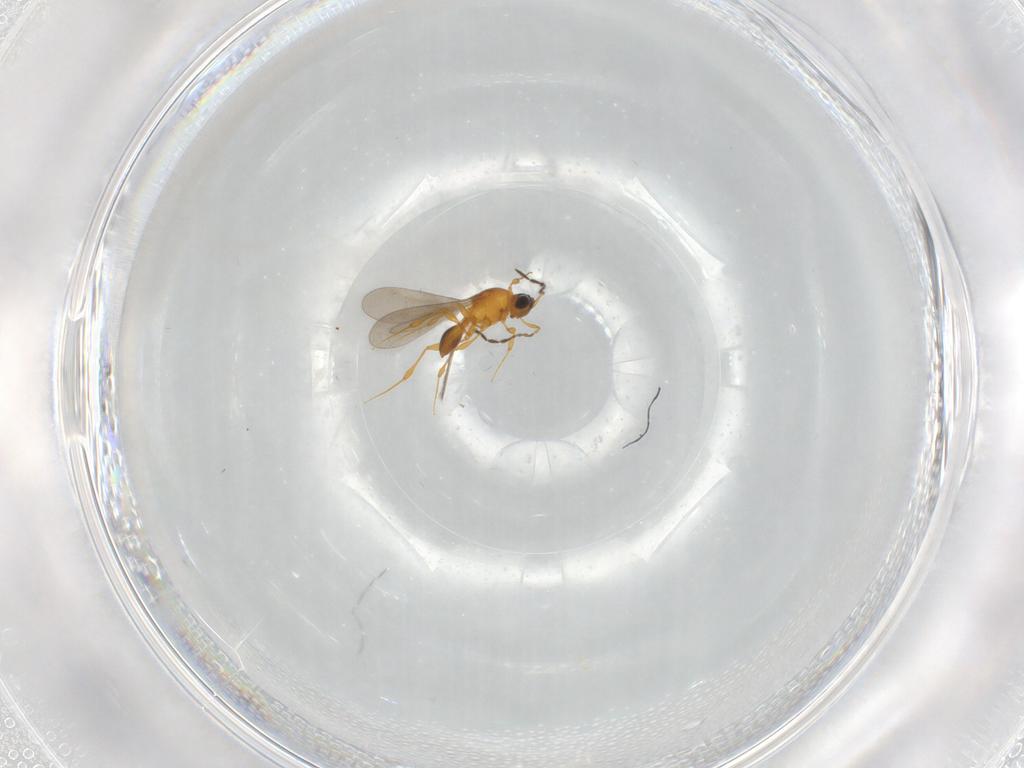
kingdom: Animalia
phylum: Arthropoda
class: Insecta
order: Hymenoptera
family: Platygastridae
